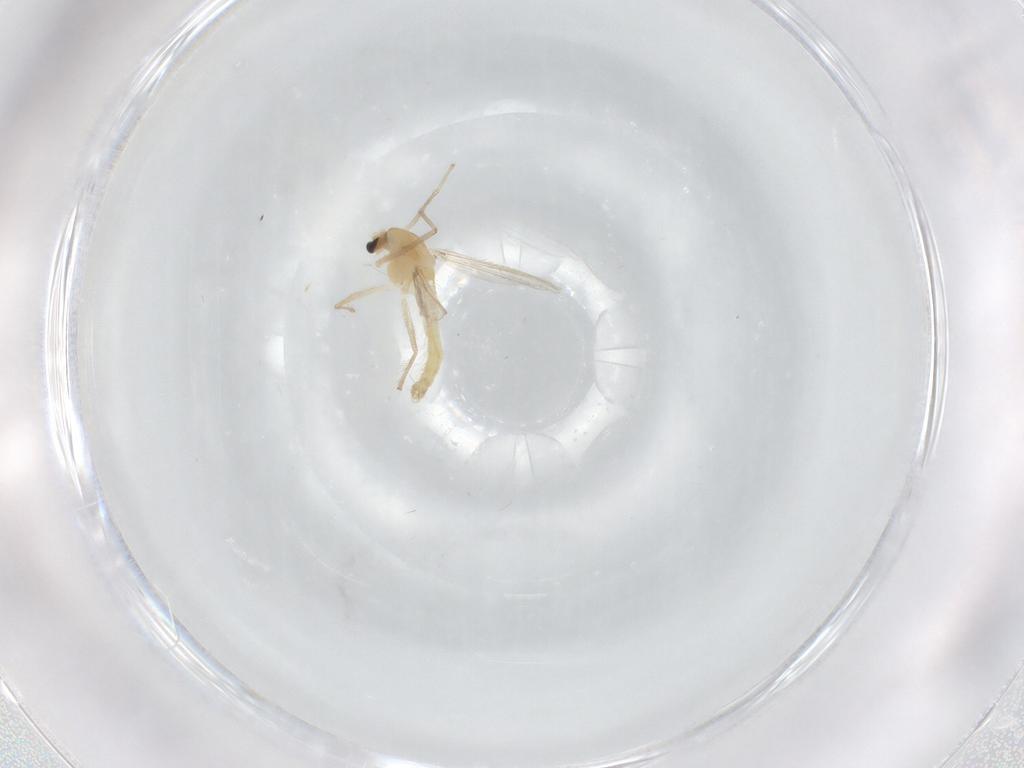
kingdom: Animalia
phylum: Arthropoda
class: Insecta
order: Diptera
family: Chironomidae
